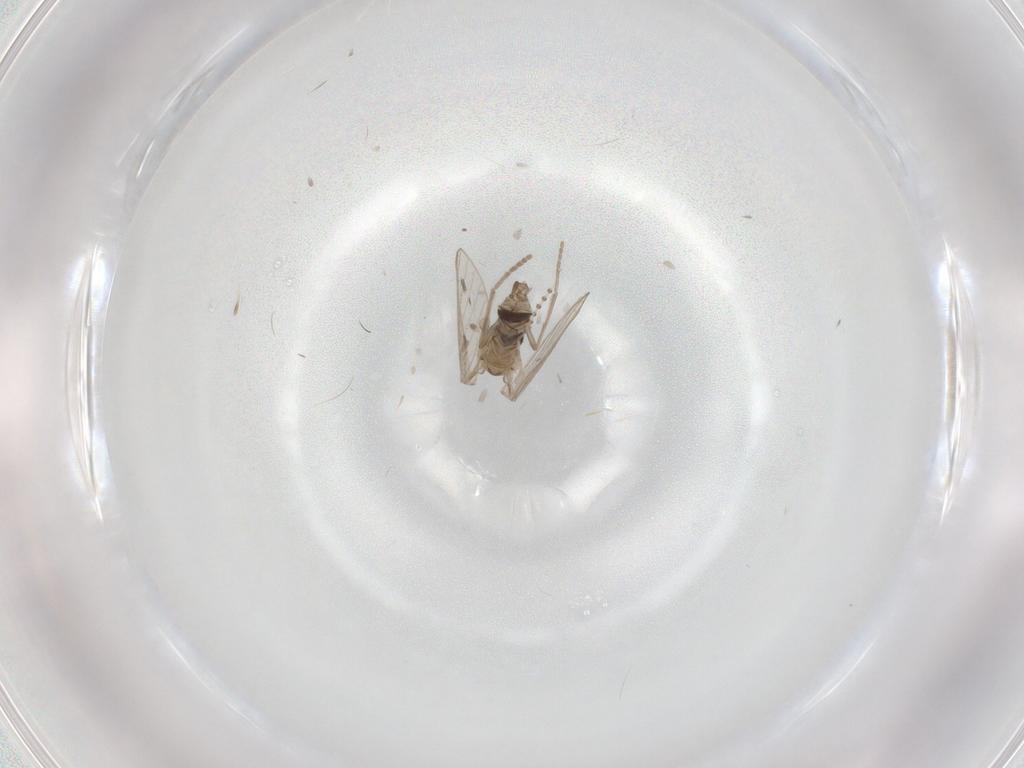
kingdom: Animalia
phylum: Arthropoda
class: Insecta
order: Diptera
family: Psychodidae
